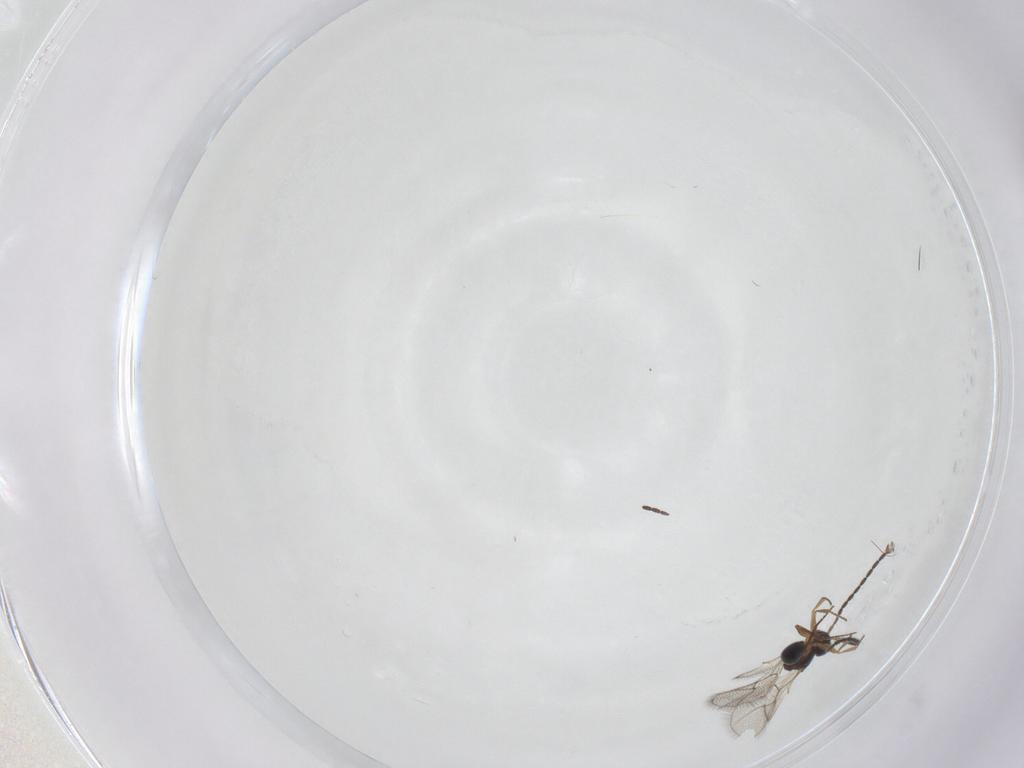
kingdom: Animalia
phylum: Arthropoda
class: Insecta
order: Hymenoptera
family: Figitidae
